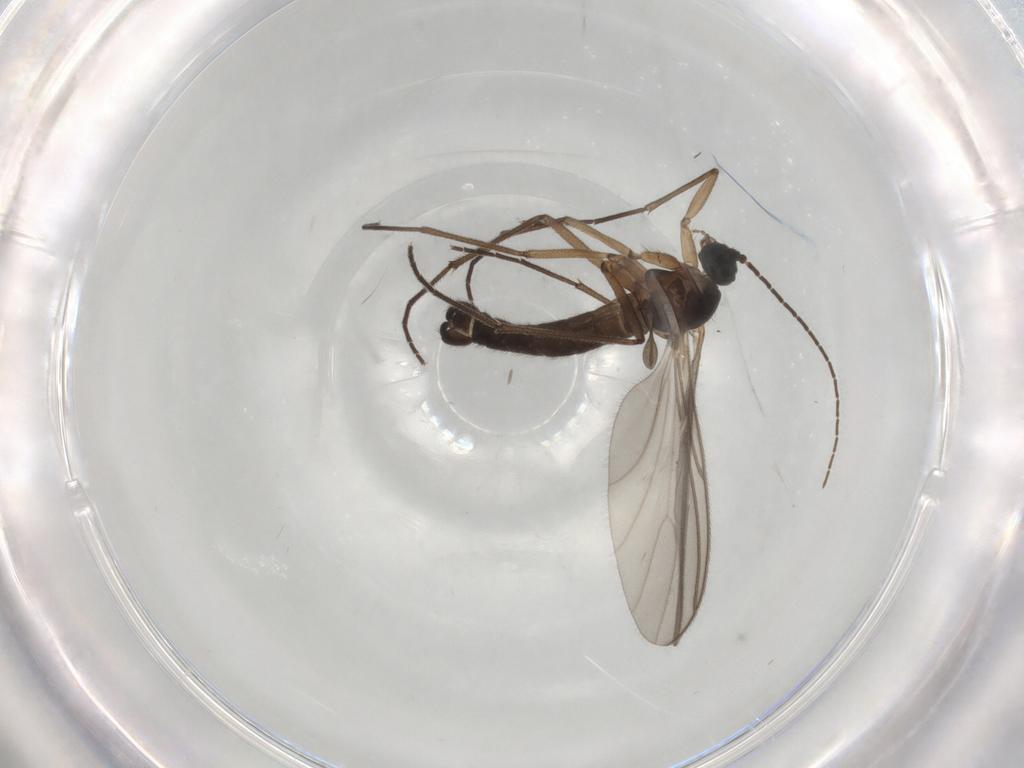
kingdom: Animalia
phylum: Arthropoda
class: Insecta
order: Diptera
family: Sciaridae
